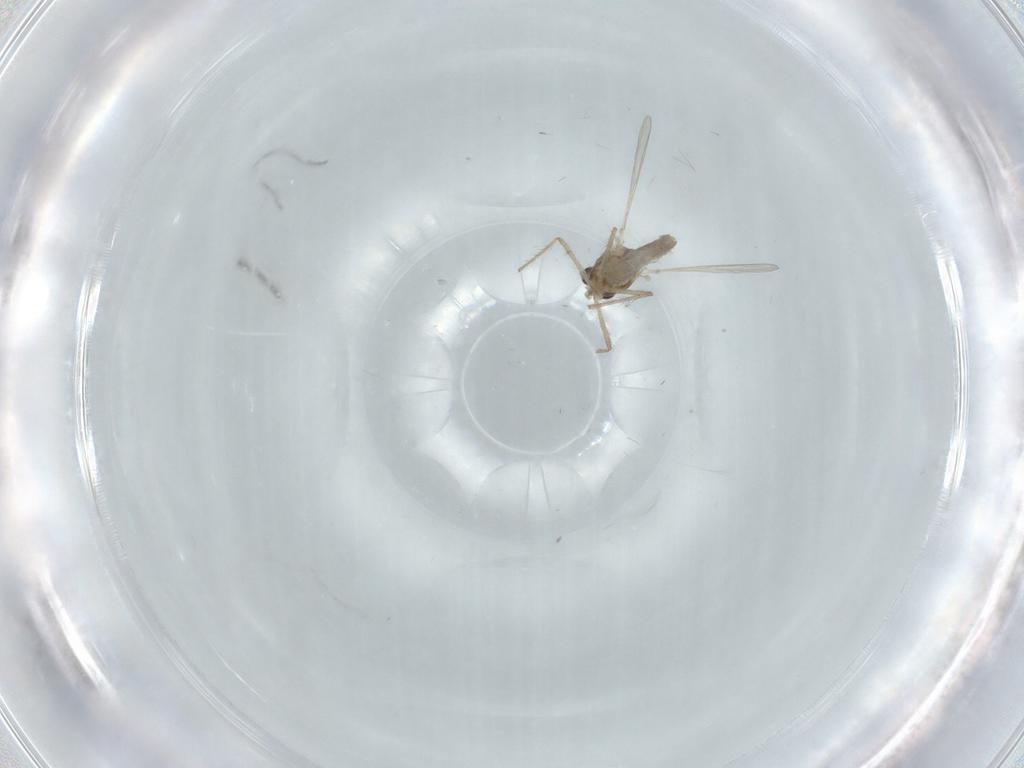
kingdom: Animalia
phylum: Arthropoda
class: Insecta
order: Diptera
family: Chironomidae
